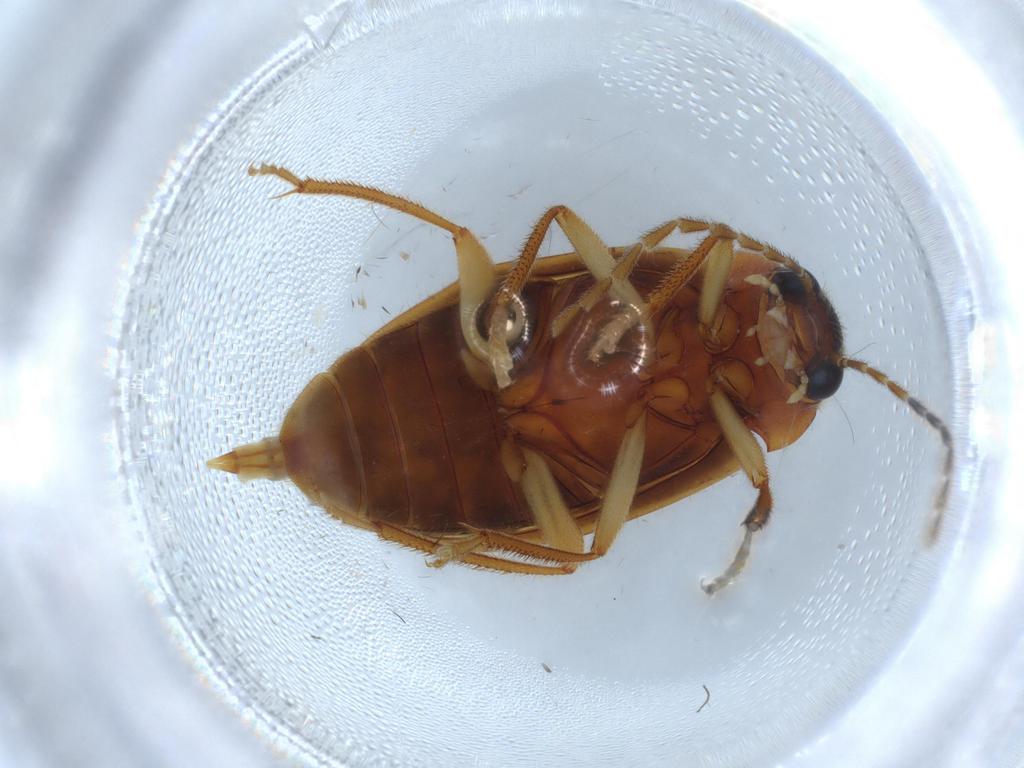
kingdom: Animalia
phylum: Arthropoda
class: Insecta
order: Coleoptera
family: Ptilodactylidae
